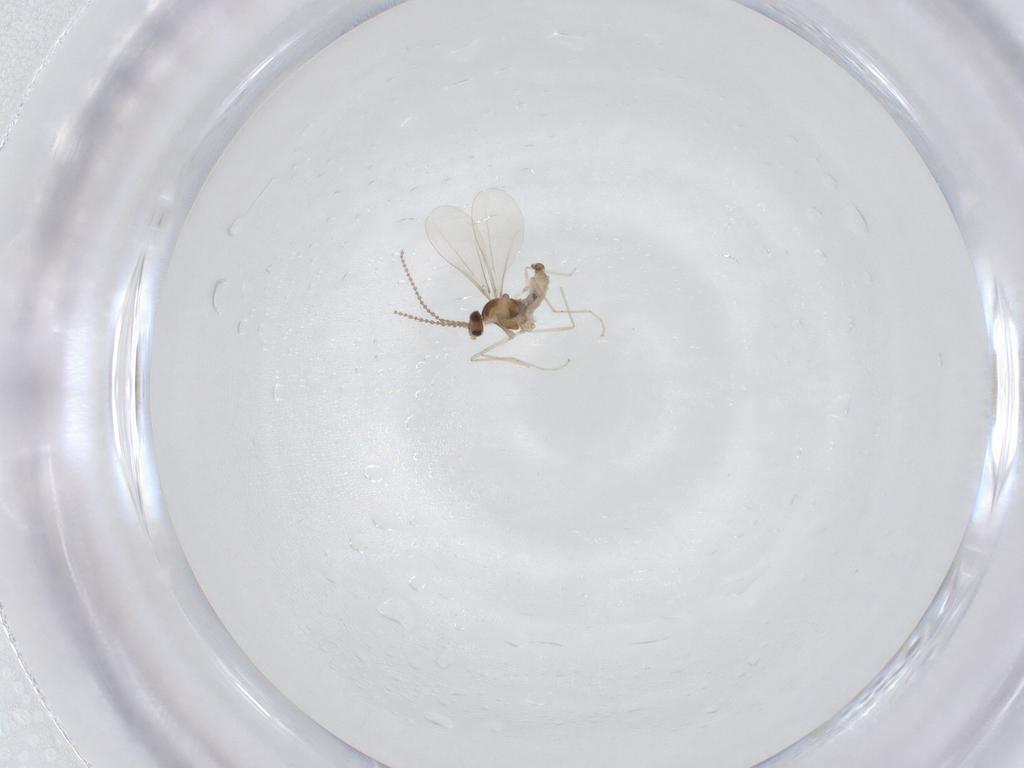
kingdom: Animalia
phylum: Arthropoda
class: Insecta
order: Diptera
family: Cecidomyiidae
